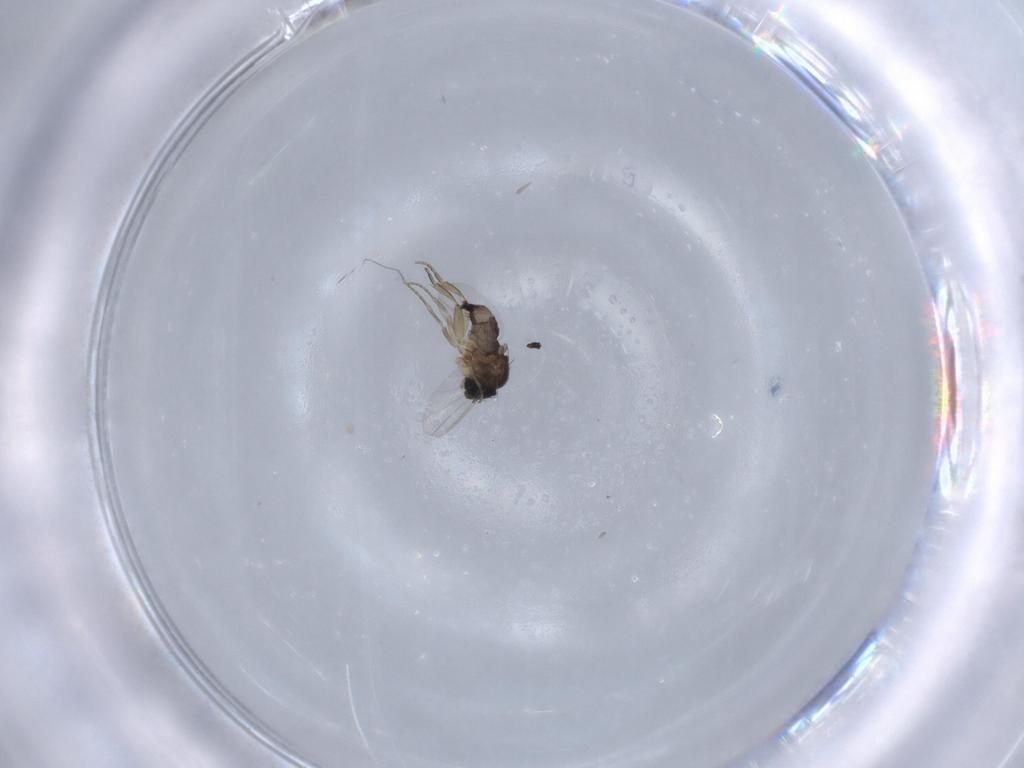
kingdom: Animalia
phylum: Arthropoda
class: Insecta
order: Diptera
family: Phoridae
